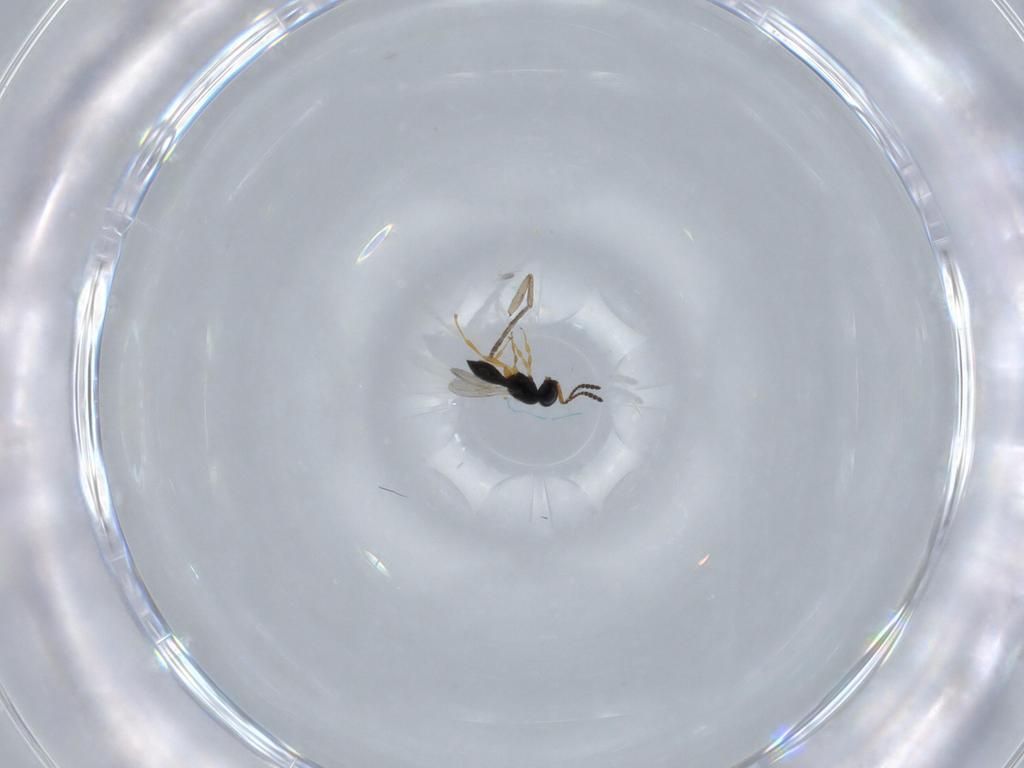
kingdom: Animalia
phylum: Arthropoda
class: Insecta
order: Hymenoptera
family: Scelionidae
